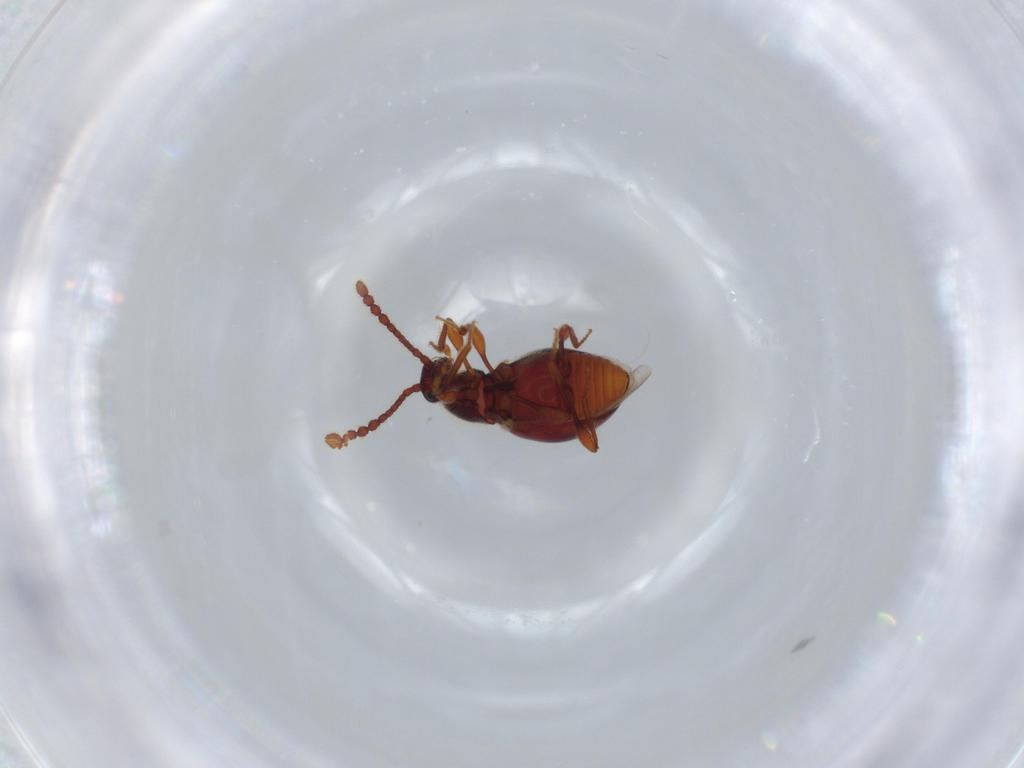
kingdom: Animalia
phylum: Arthropoda
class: Insecta
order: Coleoptera
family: Staphylinidae
